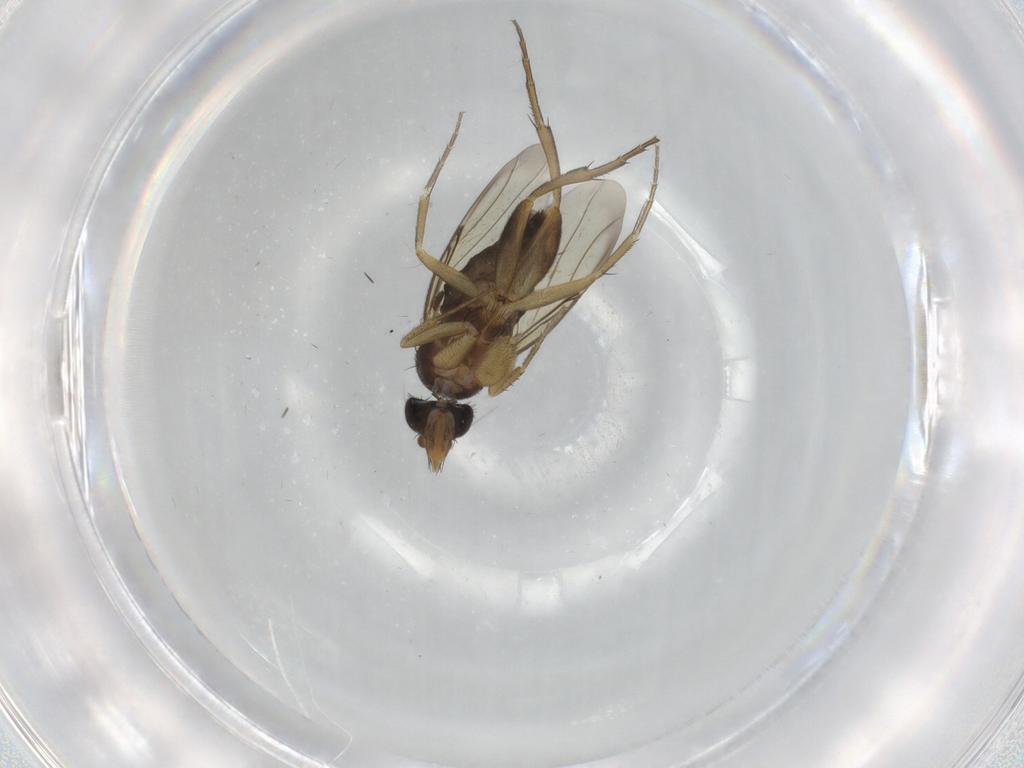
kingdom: Animalia
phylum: Arthropoda
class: Insecta
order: Diptera
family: Phoridae
